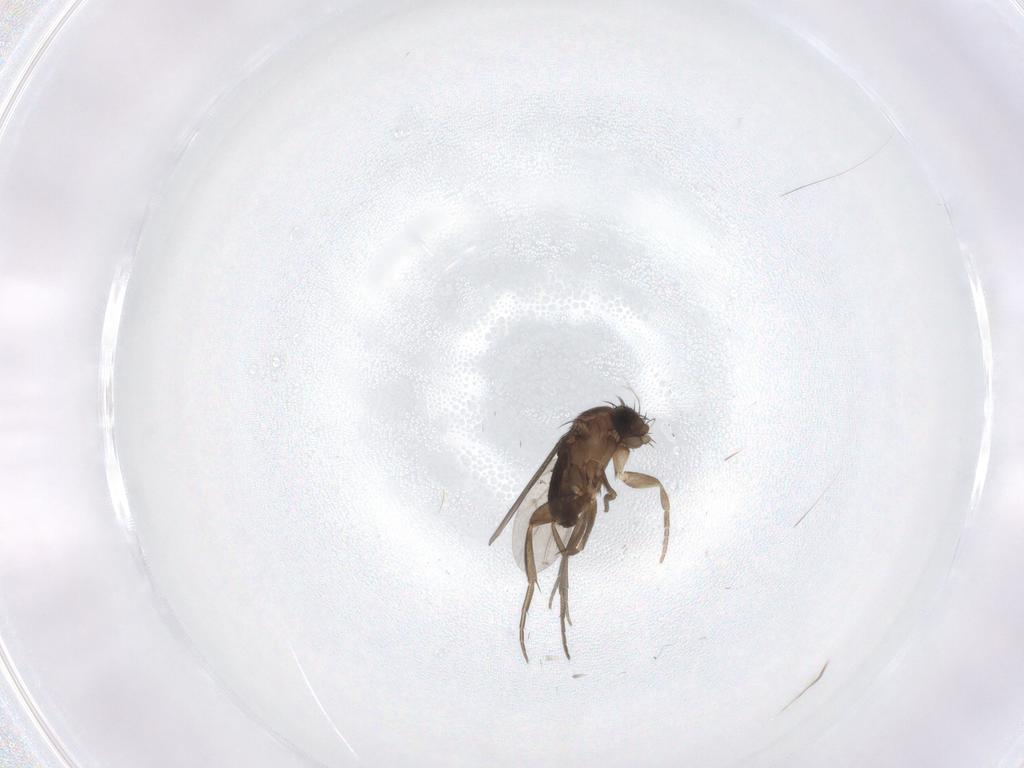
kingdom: Animalia
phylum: Arthropoda
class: Insecta
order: Diptera
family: Phoridae
